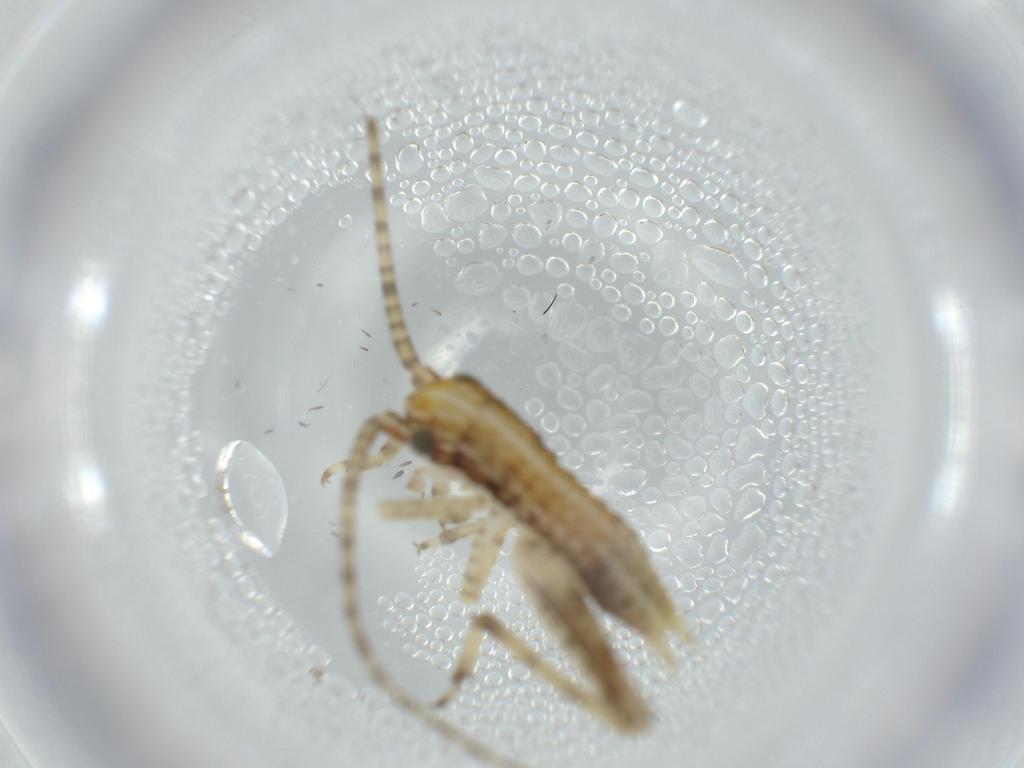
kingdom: Animalia
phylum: Arthropoda
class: Insecta
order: Orthoptera
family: Gryllidae
